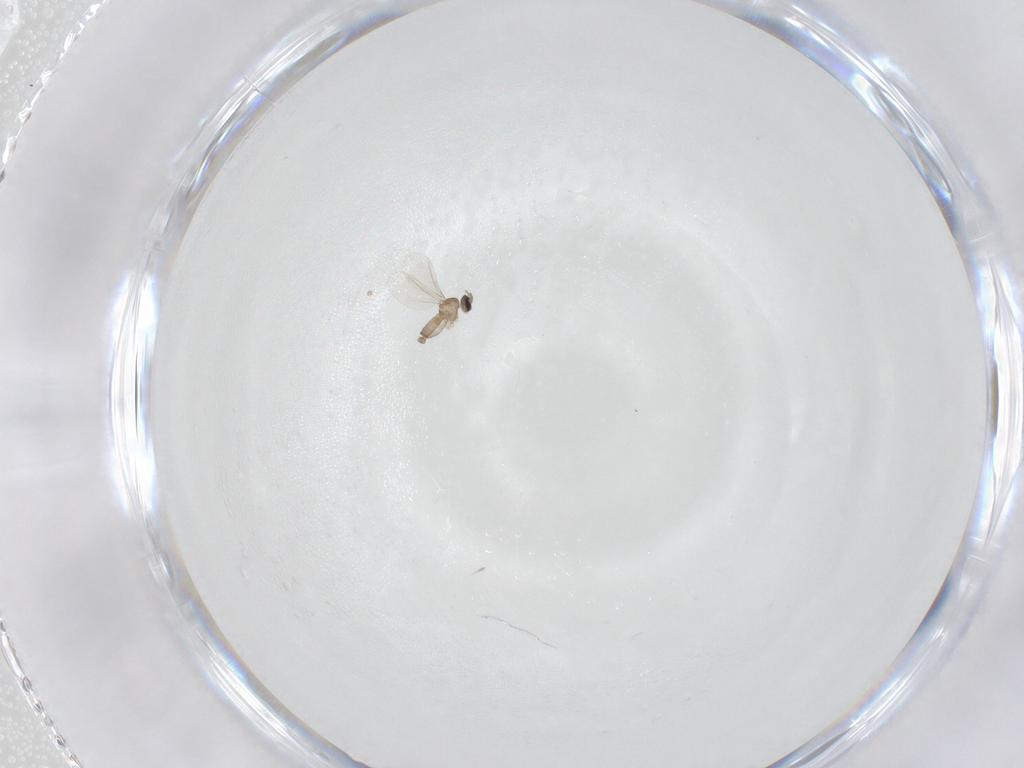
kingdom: Animalia
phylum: Arthropoda
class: Insecta
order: Diptera
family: Cecidomyiidae
